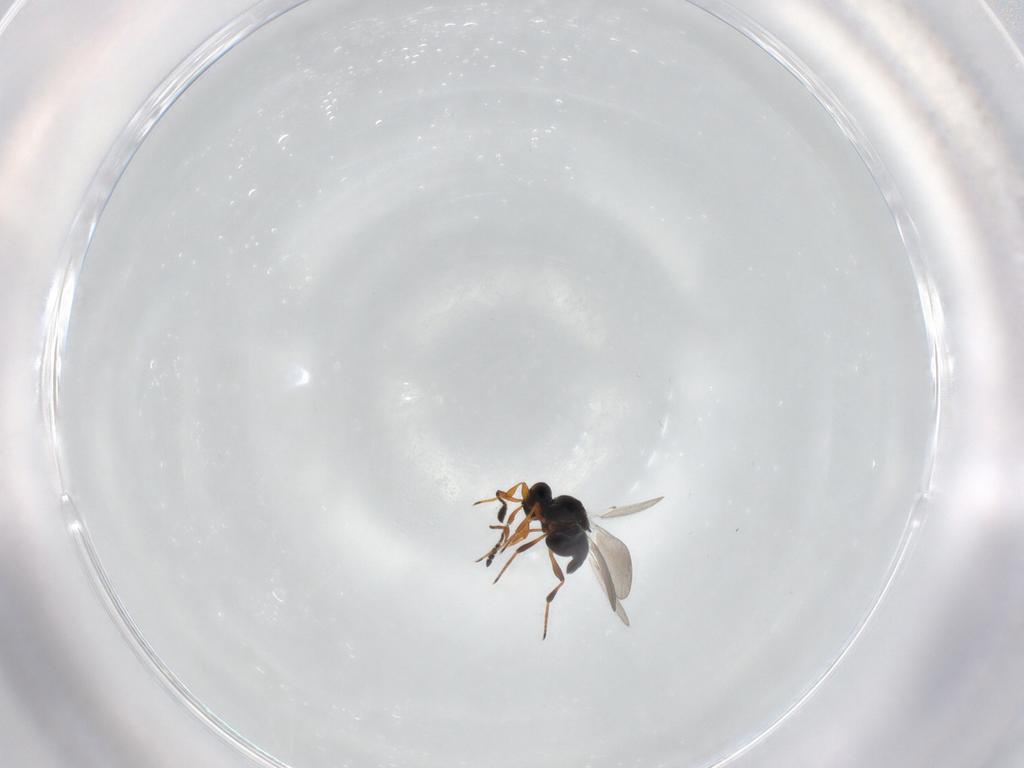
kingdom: Animalia
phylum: Arthropoda
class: Insecta
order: Hymenoptera
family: Platygastridae
